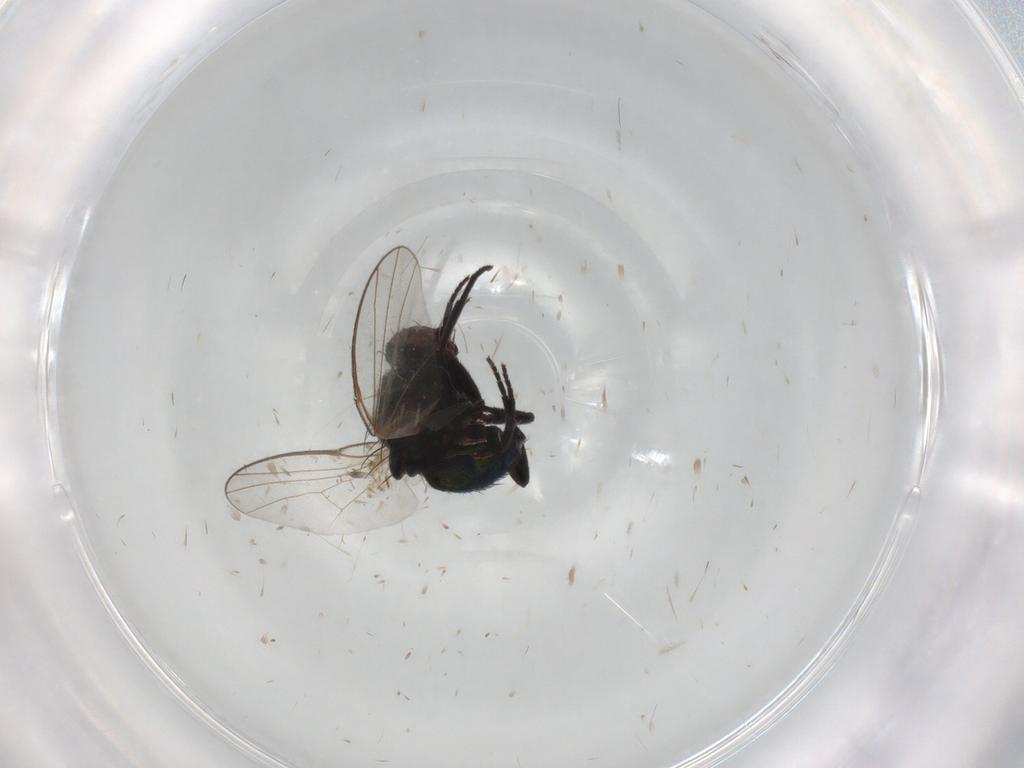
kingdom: Animalia
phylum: Arthropoda
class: Insecta
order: Diptera
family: Agromyzidae
